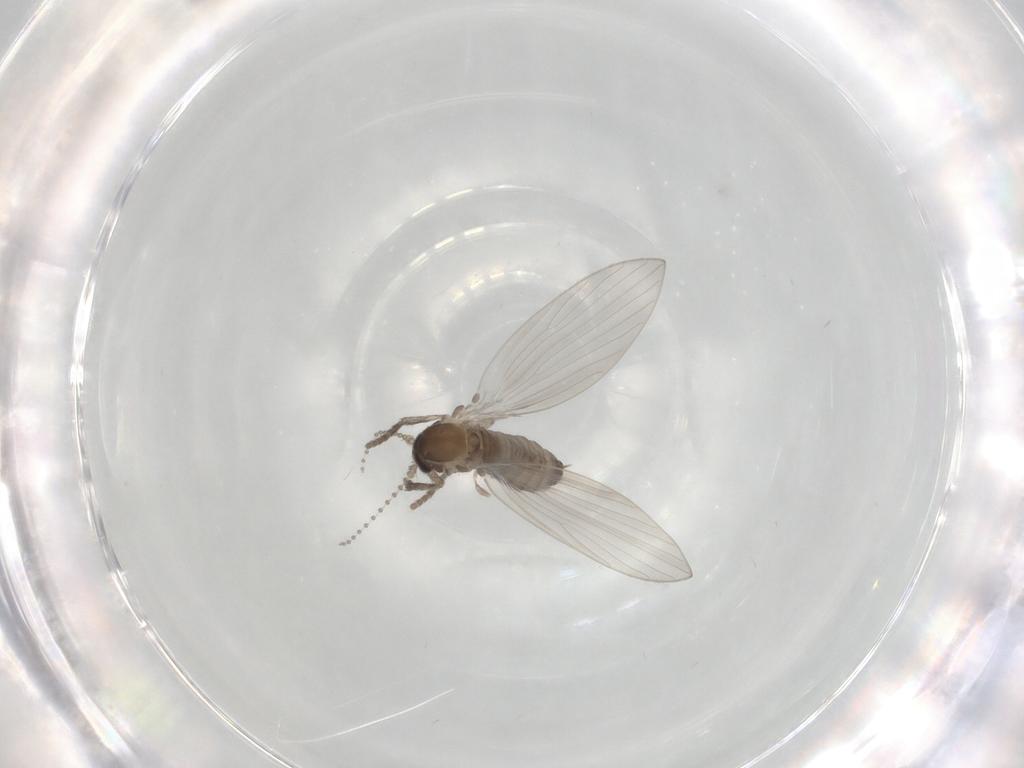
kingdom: Animalia
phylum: Arthropoda
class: Insecta
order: Diptera
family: Psychodidae
